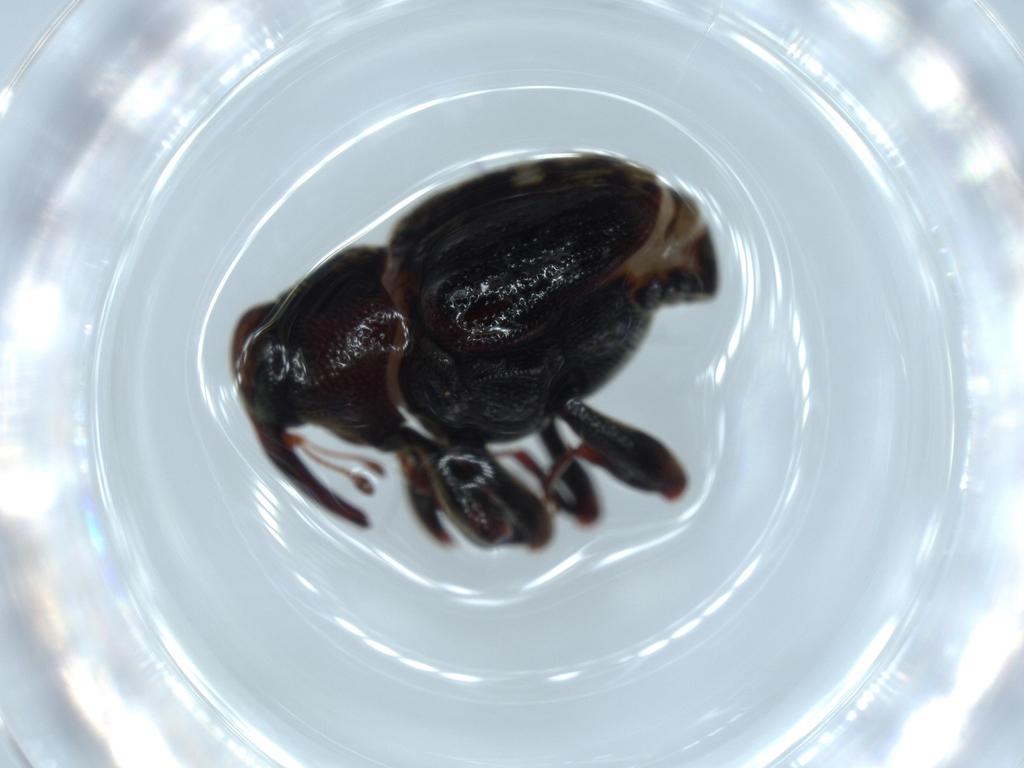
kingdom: Animalia
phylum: Arthropoda
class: Insecta
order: Coleoptera
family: Curculionidae
